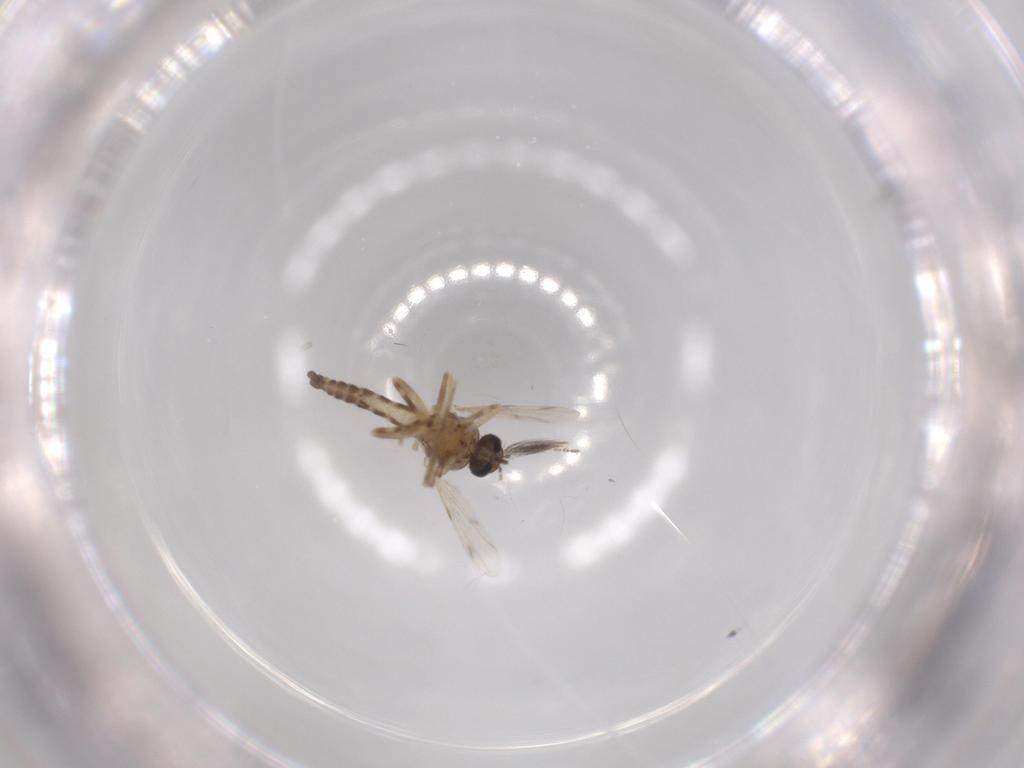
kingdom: Animalia
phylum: Arthropoda
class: Insecta
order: Diptera
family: Ceratopogonidae
